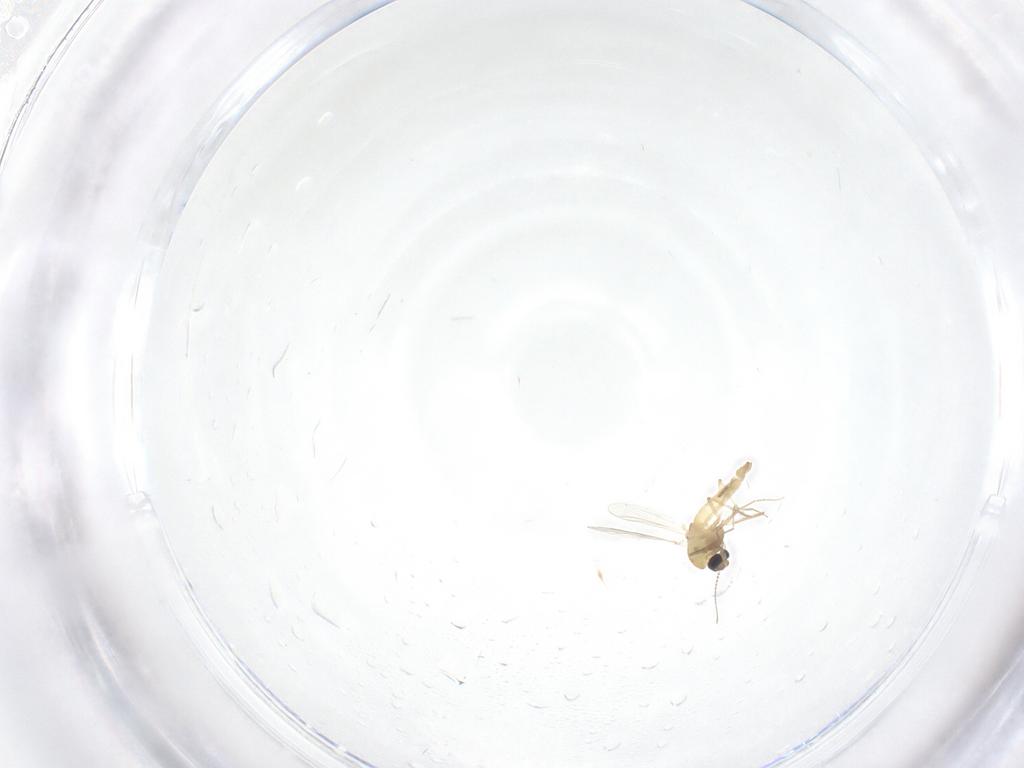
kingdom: Animalia
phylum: Arthropoda
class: Insecta
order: Diptera
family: Chironomidae
